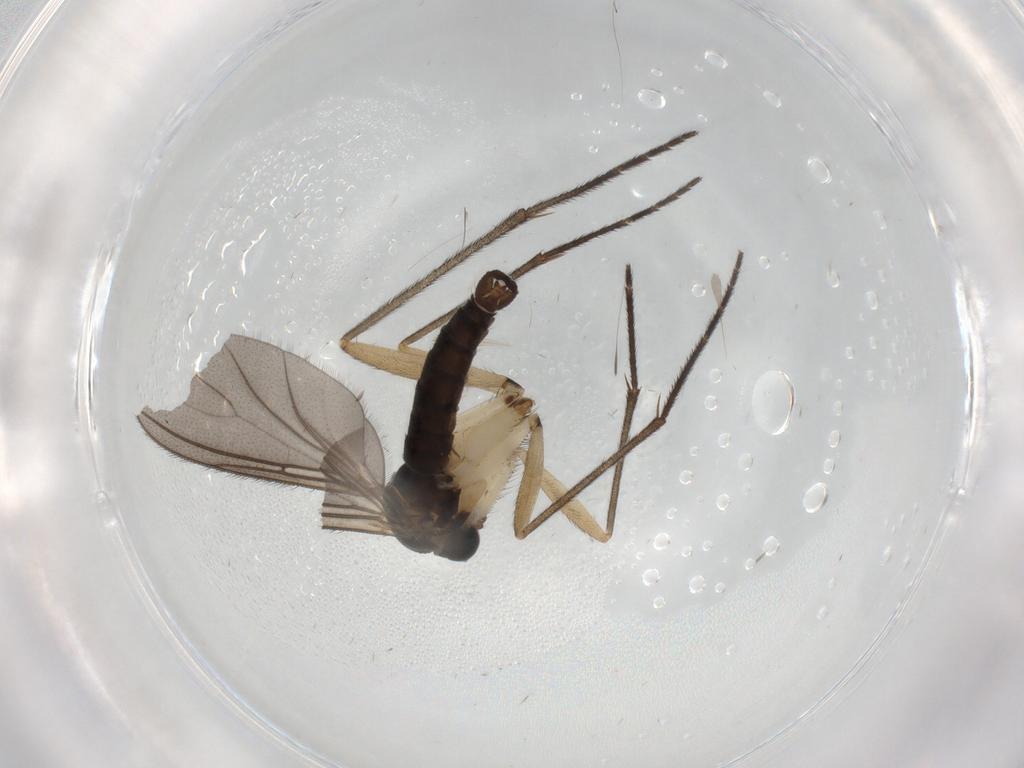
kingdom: Animalia
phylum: Arthropoda
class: Insecta
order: Diptera
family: Sciaridae
